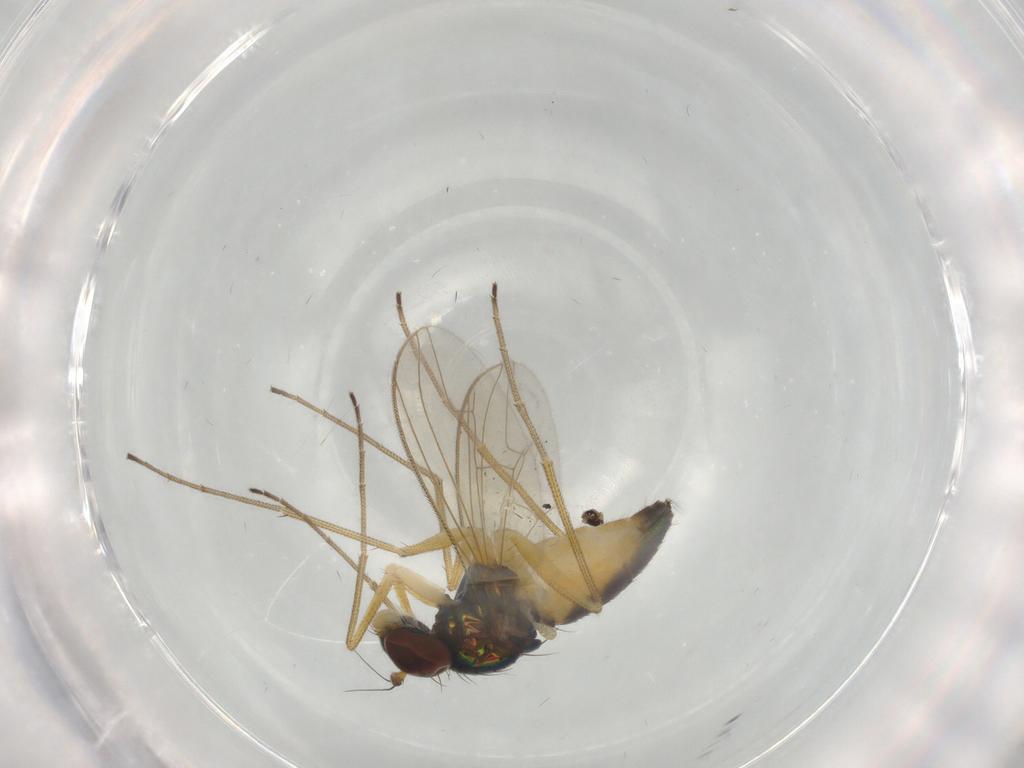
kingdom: Animalia
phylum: Arthropoda
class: Insecta
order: Diptera
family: Dolichopodidae
